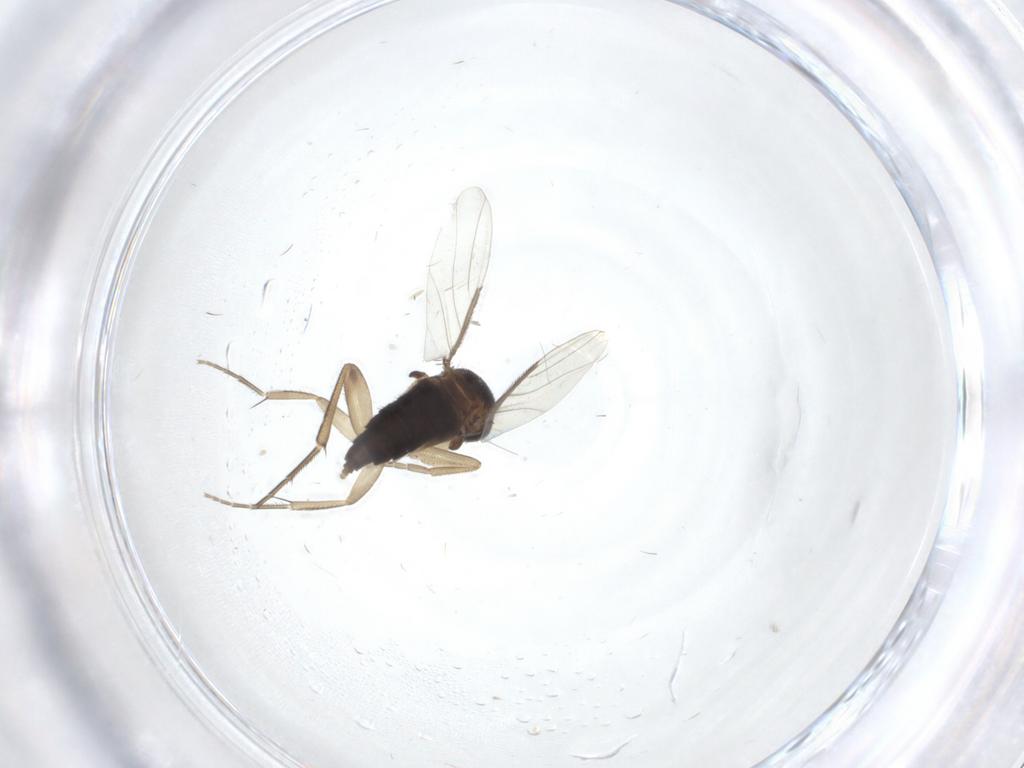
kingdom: Animalia
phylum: Arthropoda
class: Insecta
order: Diptera
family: Phoridae
